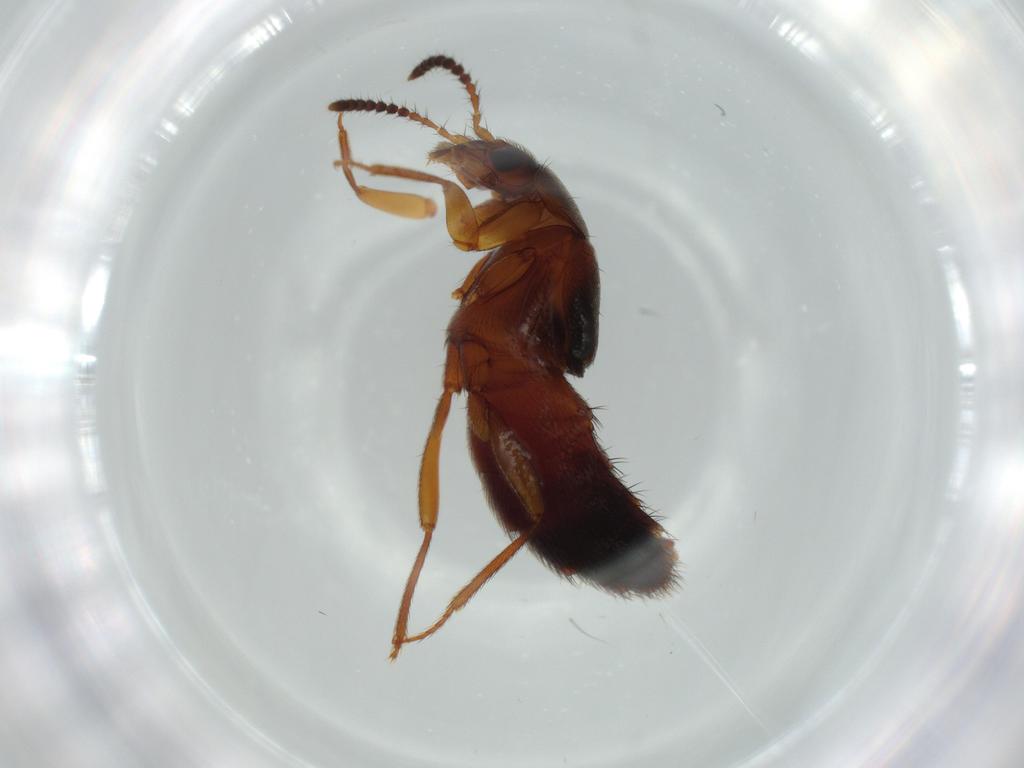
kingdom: Animalia
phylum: Arthropoda
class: Insecta
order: Coleoptera
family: Staphylinidae
